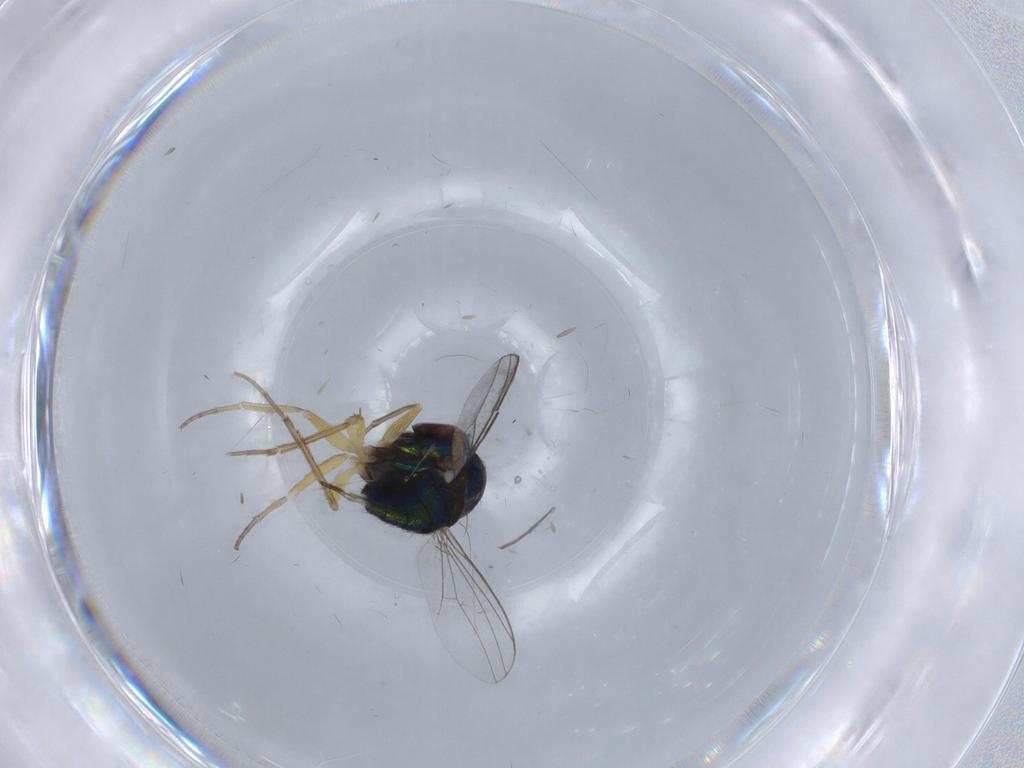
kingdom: Animalia
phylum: Arthropoda
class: Insecta
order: Diptera
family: Dolichopodidae
